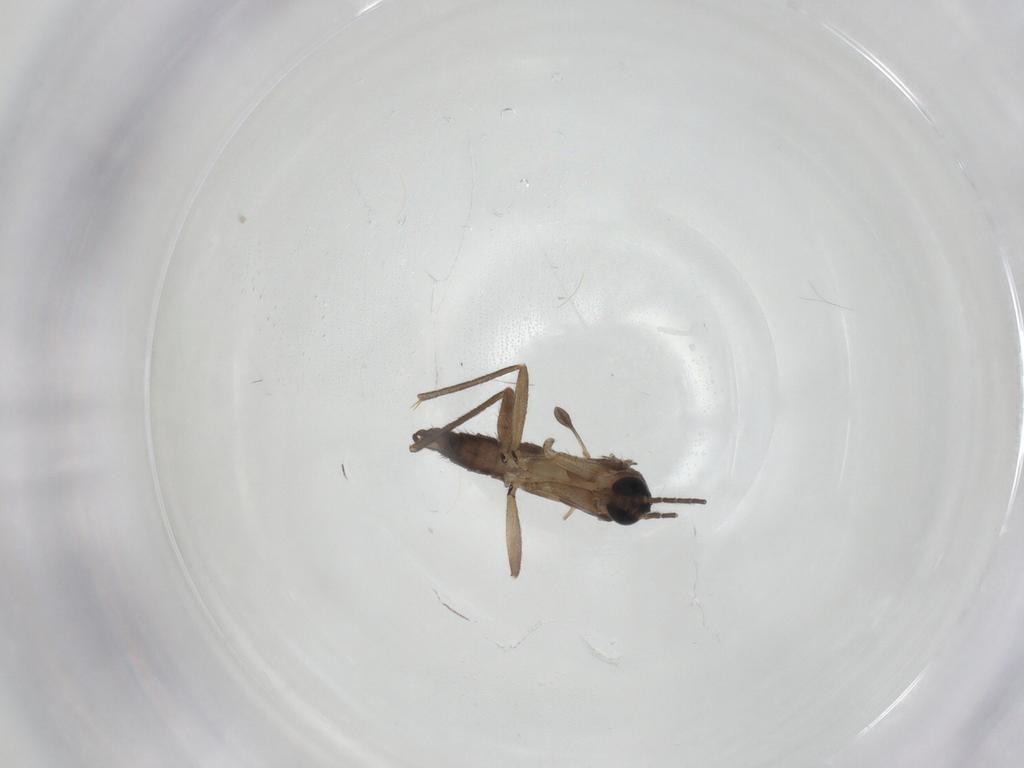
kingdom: Animalia
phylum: Arthropoda
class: Insecta
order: Diptera
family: Sciaridae
